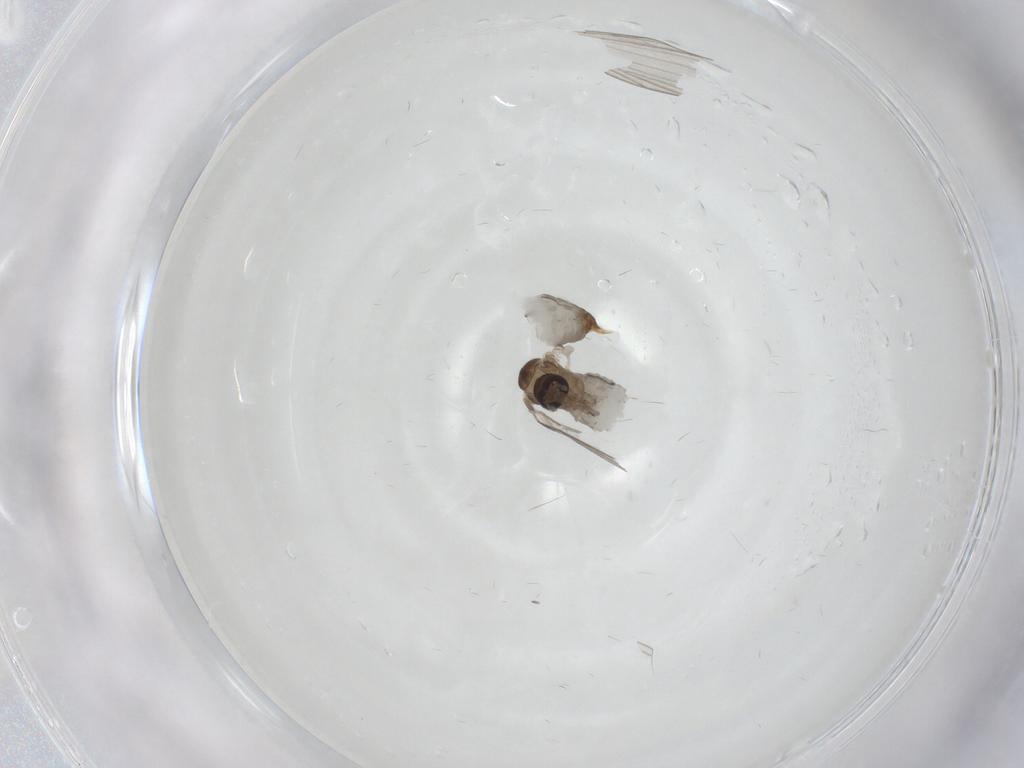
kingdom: Animalia
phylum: Arthropoda
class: Insecta
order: Diptera
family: Psychodidae
